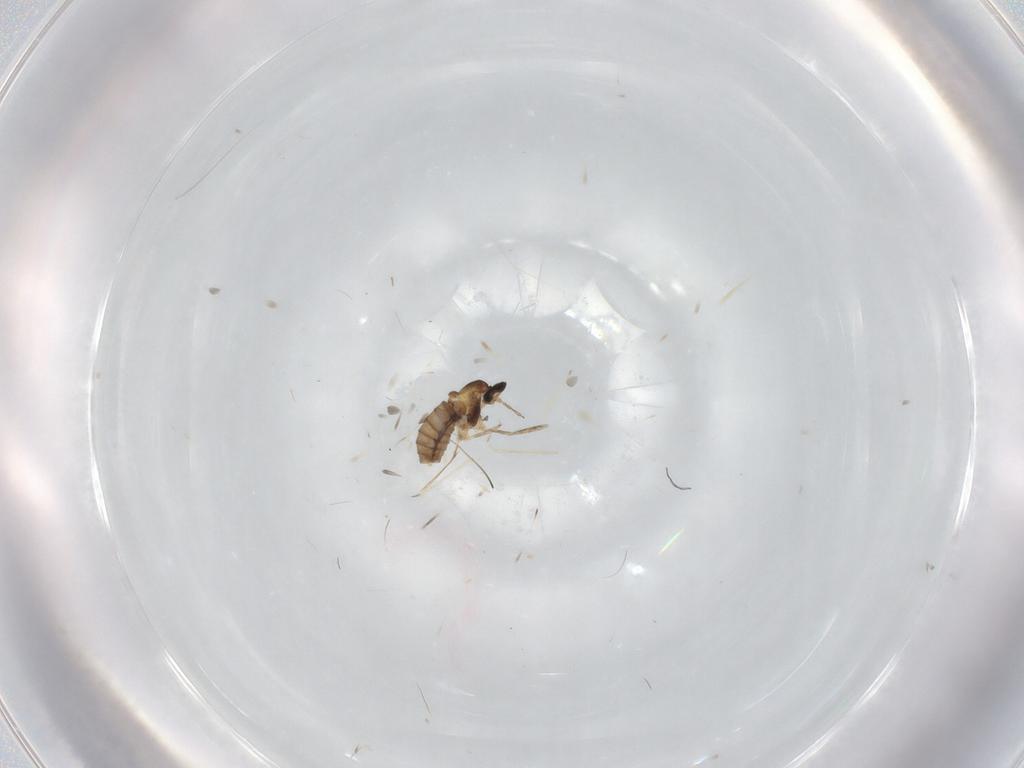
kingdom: Animalia
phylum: Arthropoda
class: Insecta
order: Diptera
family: Cecidomyiidae
